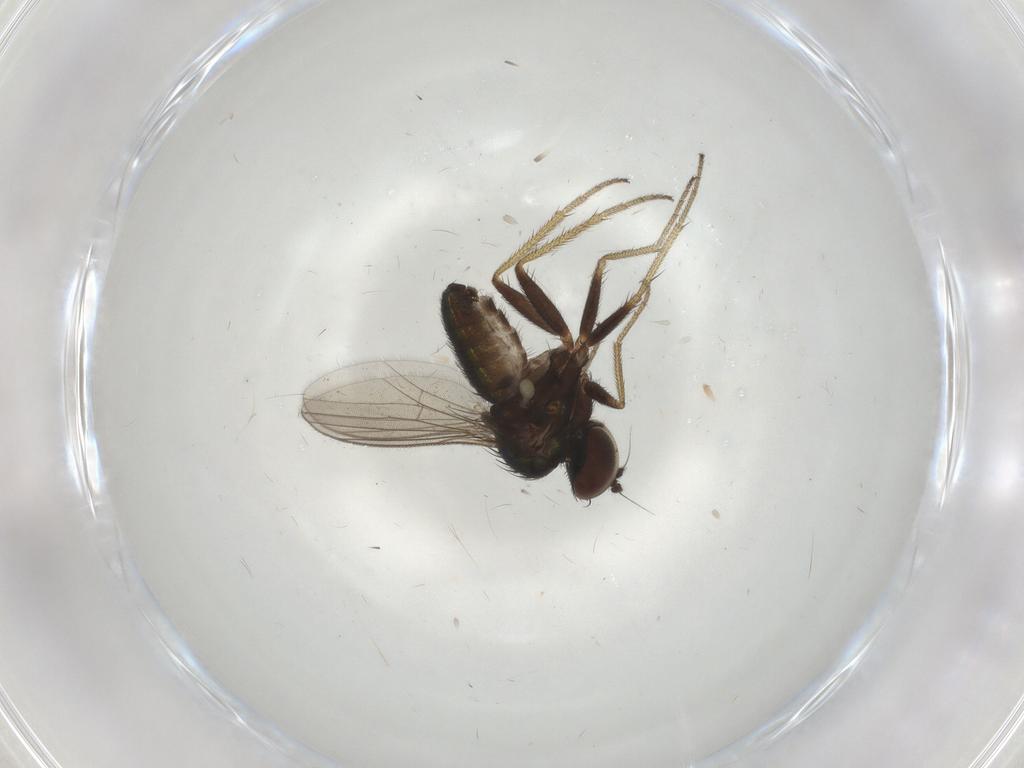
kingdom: Animalia
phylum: Arthropoda
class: Insecta
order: Diptera
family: Dolichopodidae
